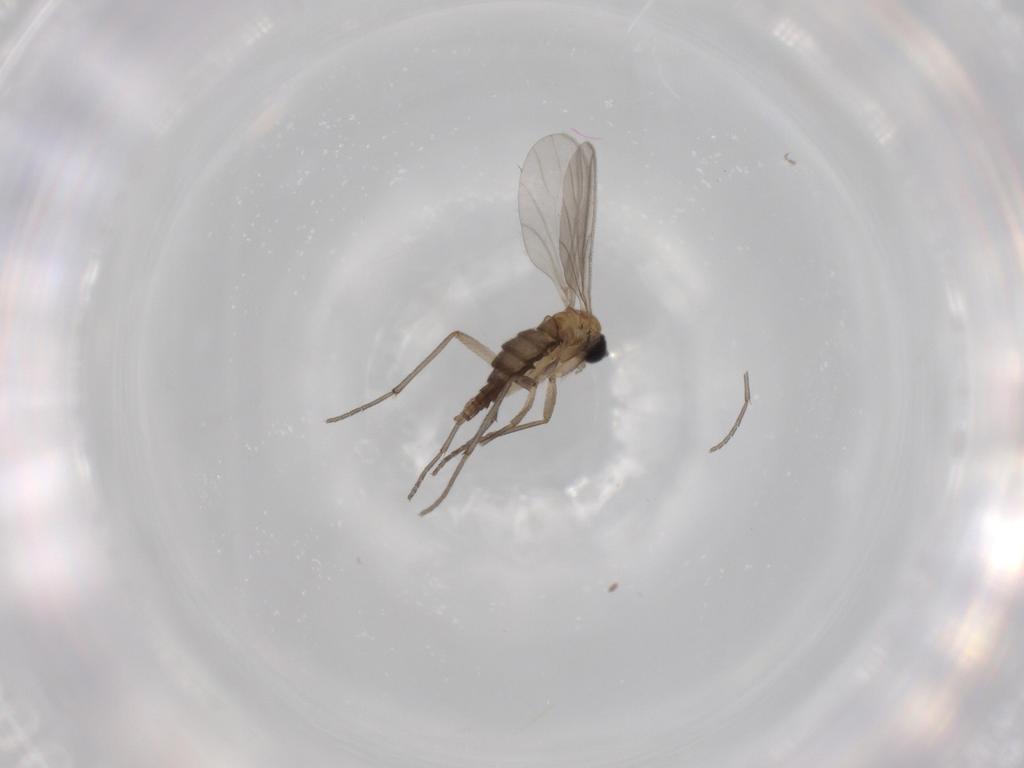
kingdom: Animalia
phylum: Arthropoda
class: Insecta
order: Diptera
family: Sciaridae
